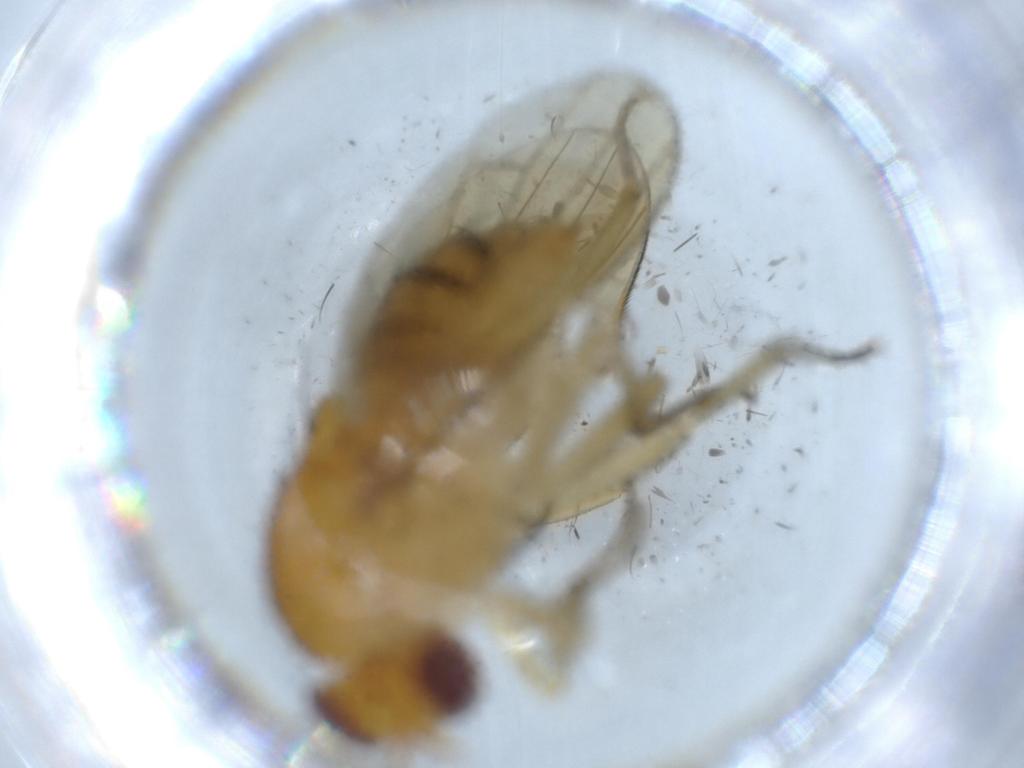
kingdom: Animalia
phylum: Arthropoda
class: Insecta
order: Diptera
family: Mycetophilidae
